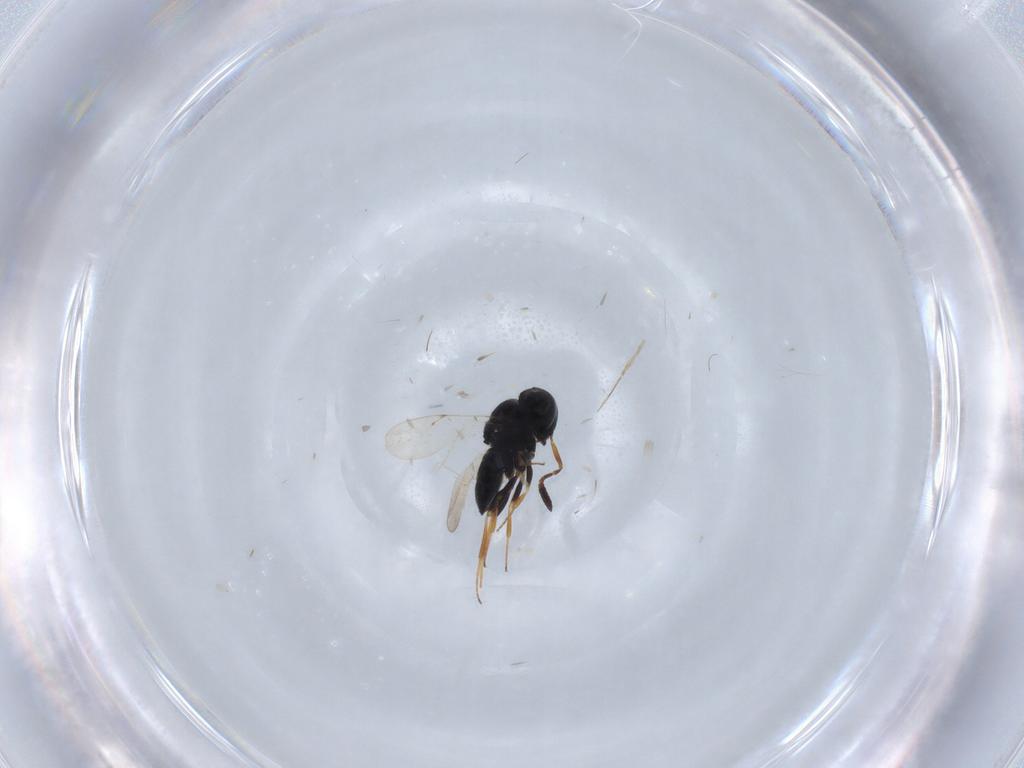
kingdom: Animalia
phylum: Arthropoda
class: Insecta
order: Coleoptera
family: Curculionidae
